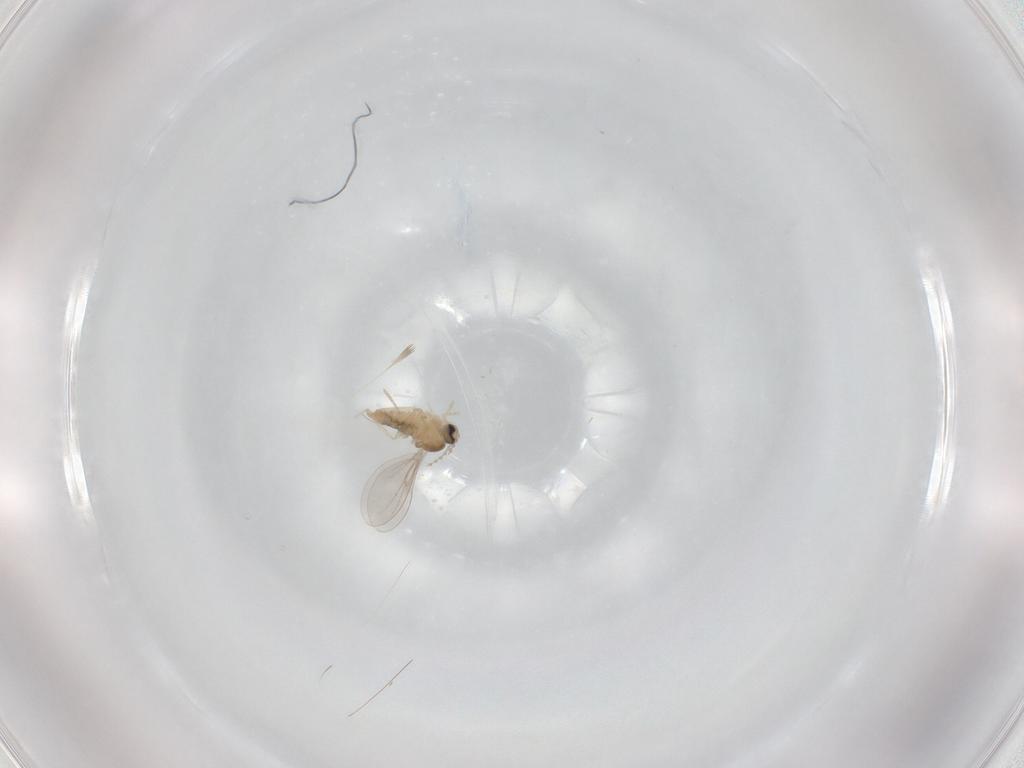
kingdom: Animalia
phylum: Arthropoda
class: Insecta
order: Diptera
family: Cecidomyiidae
